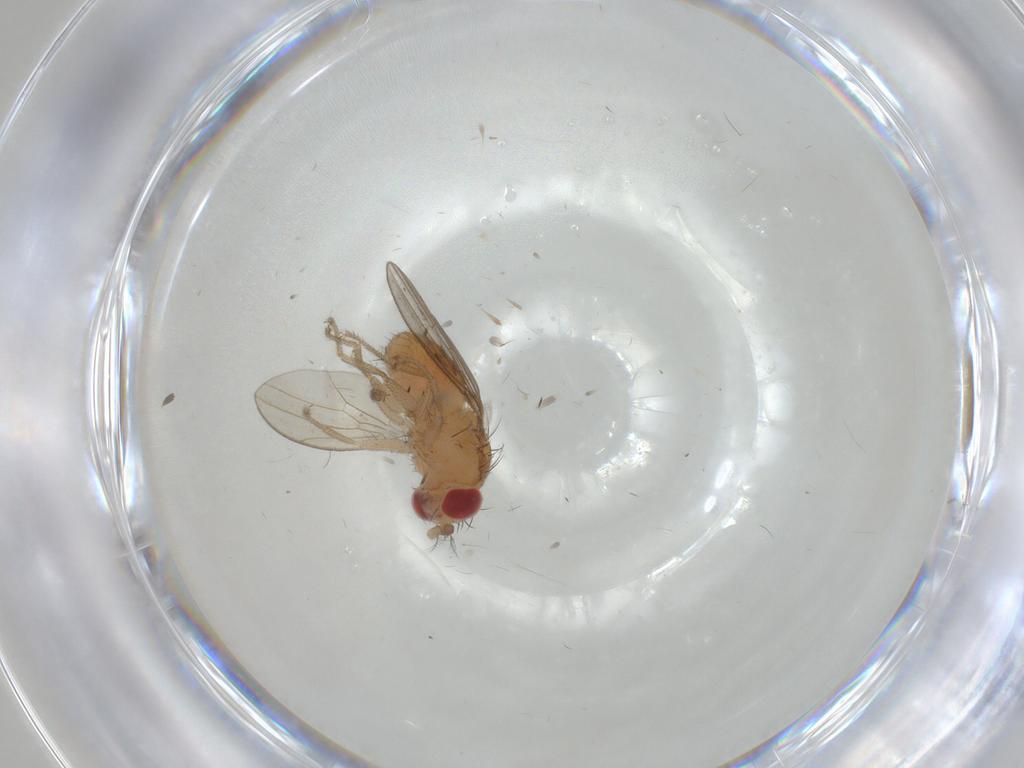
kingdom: Animalia
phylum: Arthropoda
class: Insecta
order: Diptera
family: Drosophilidae
